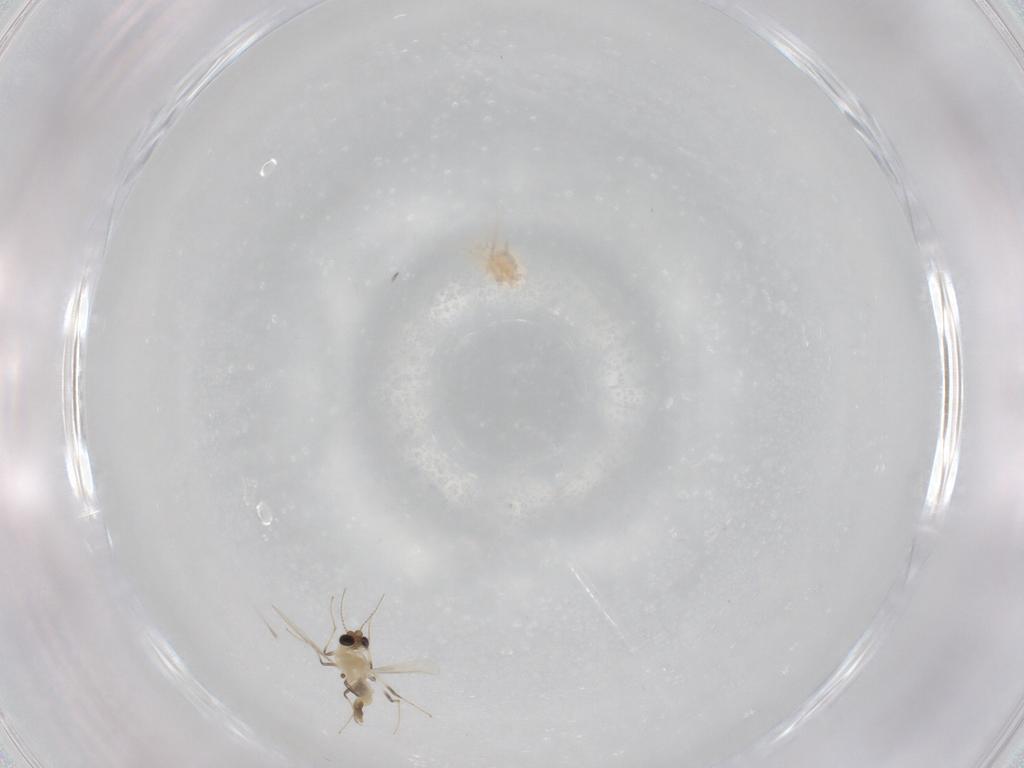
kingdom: Animalia
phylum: Arthropoda
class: Insecta
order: Diptera
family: Chironomidae
